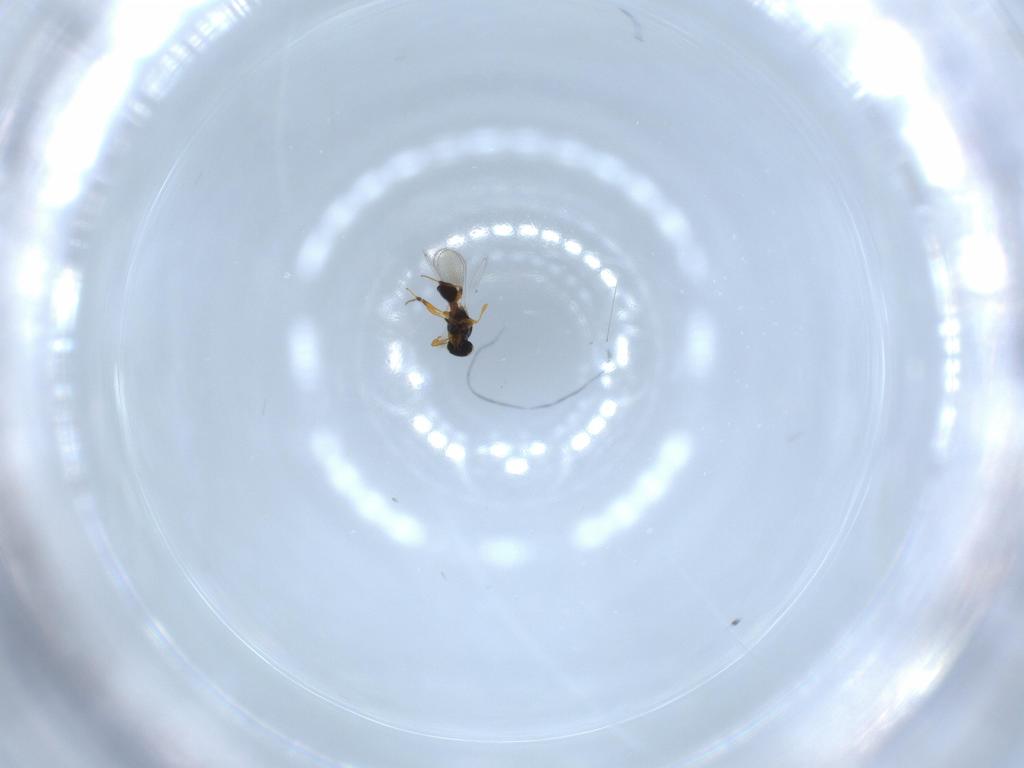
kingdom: Animalia
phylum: Arthropoda
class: Insecta
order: Hymenoptera
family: Platygastridae
